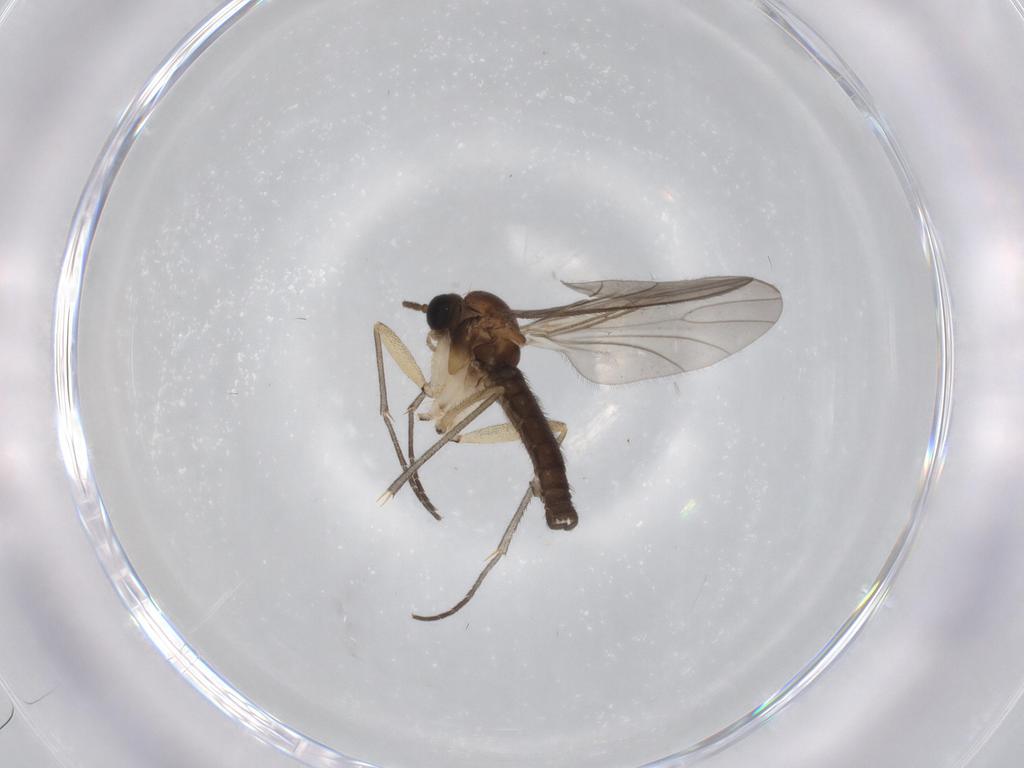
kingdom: Animalia
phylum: Arthropoda
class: Insecta
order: Diptera
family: Sciaridae
